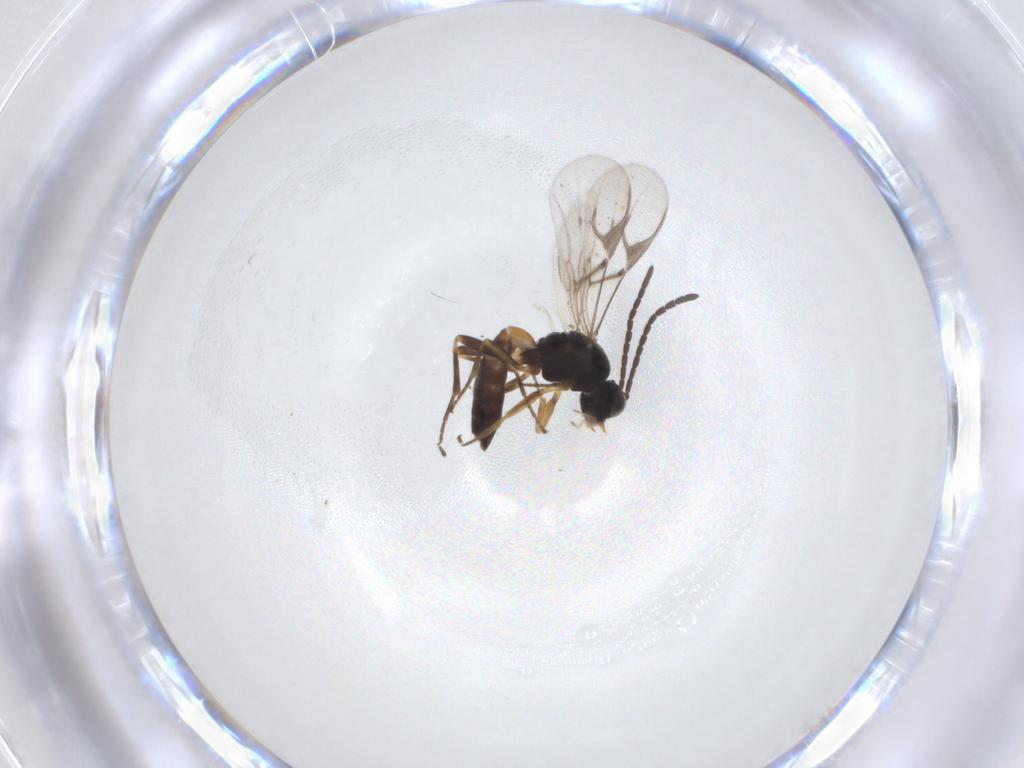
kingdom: Animalia
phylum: Arthropoda
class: Insecta
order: Hymenoptera
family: Braconidae
